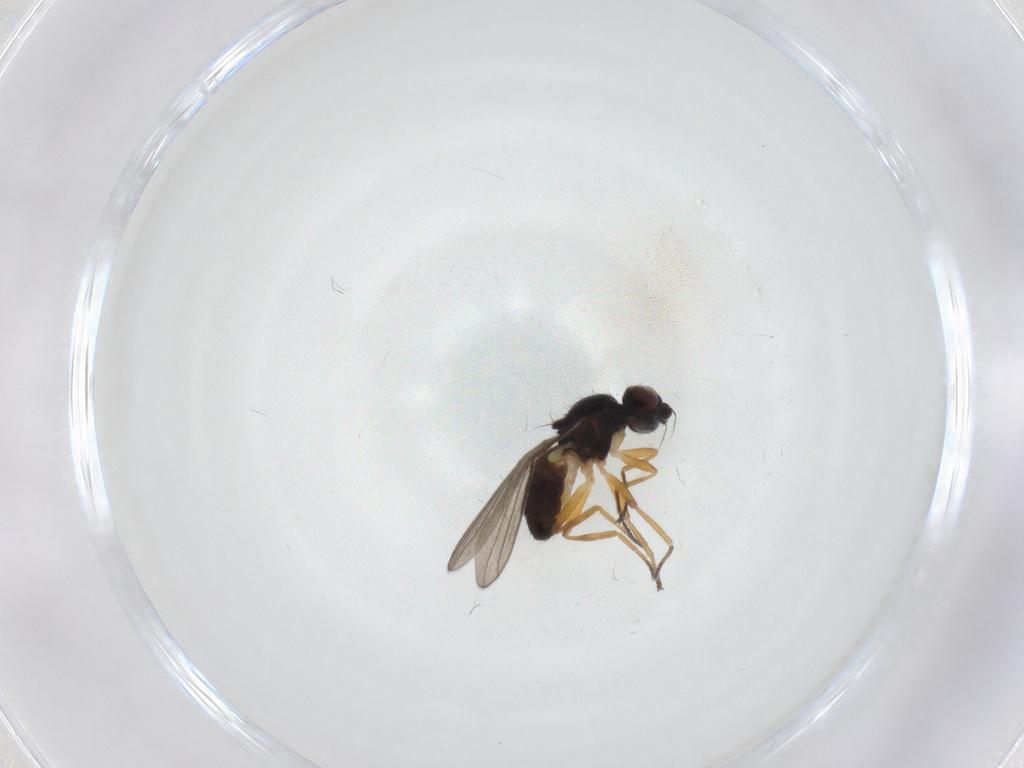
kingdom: Animalia
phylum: Arthropoda
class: Insecta
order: Diptera
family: Chloropidae
